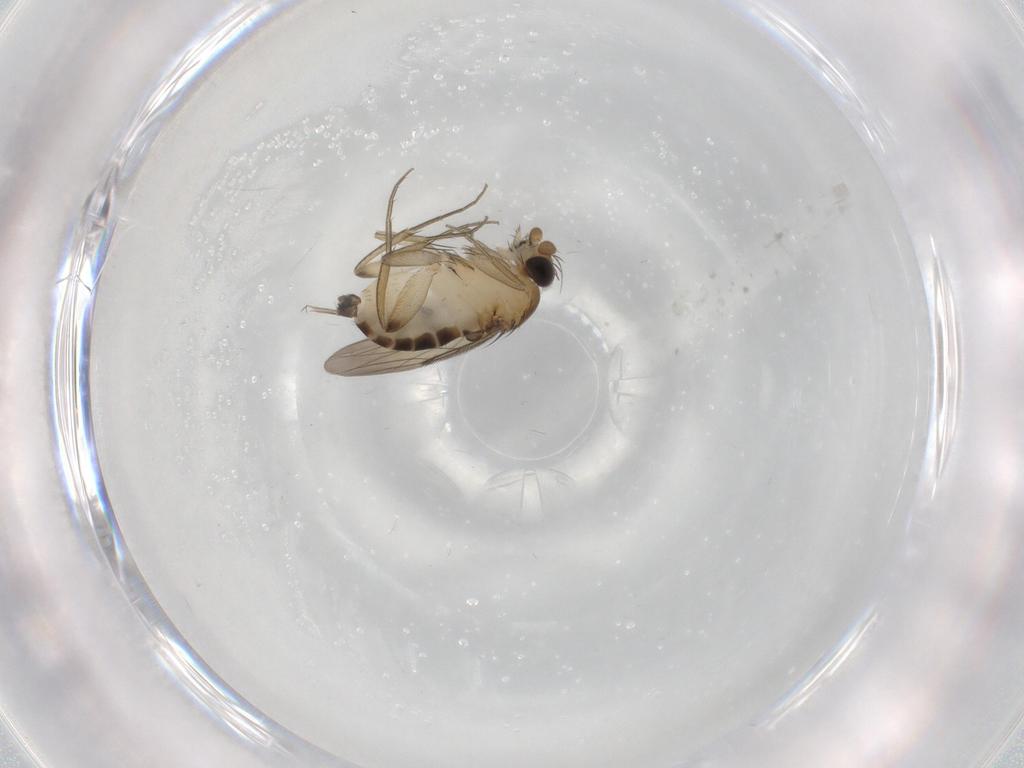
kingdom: Animalia
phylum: Arthropoda
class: Insecta
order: Diptera
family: Phoridae
